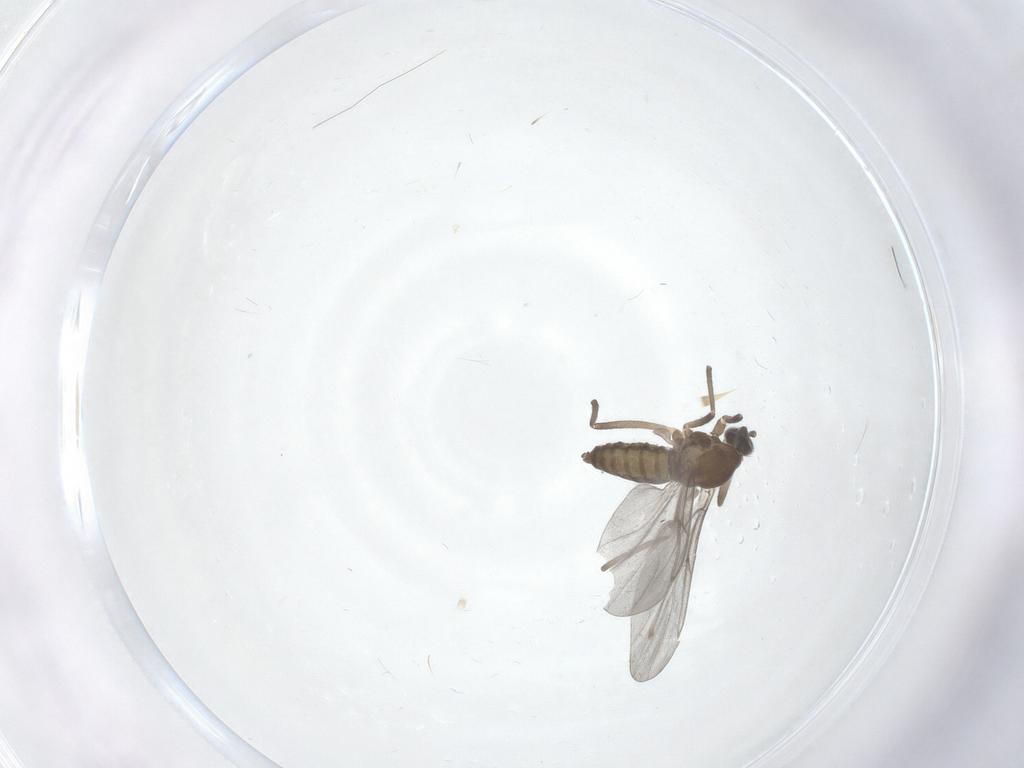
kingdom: Animalia
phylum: Arthropoda
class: Insecta
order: Diptera
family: Cecidomyiidae
